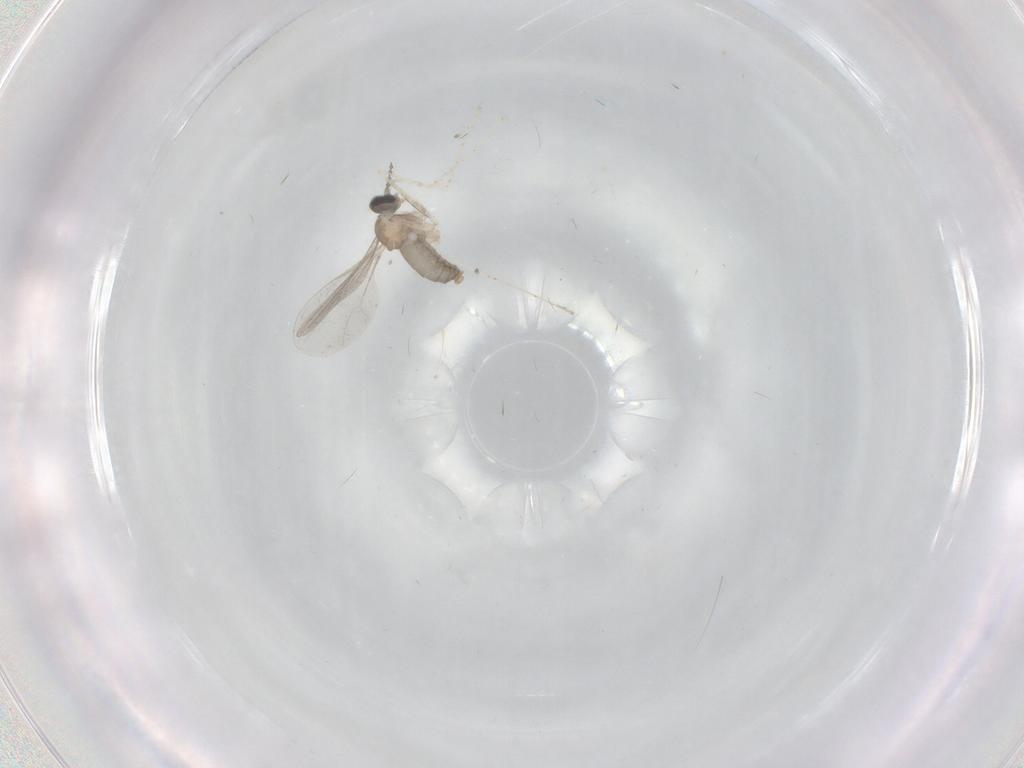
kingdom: Animalia
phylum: Arthropoda
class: Insecta
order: Diptera
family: Cecidomyiidae
